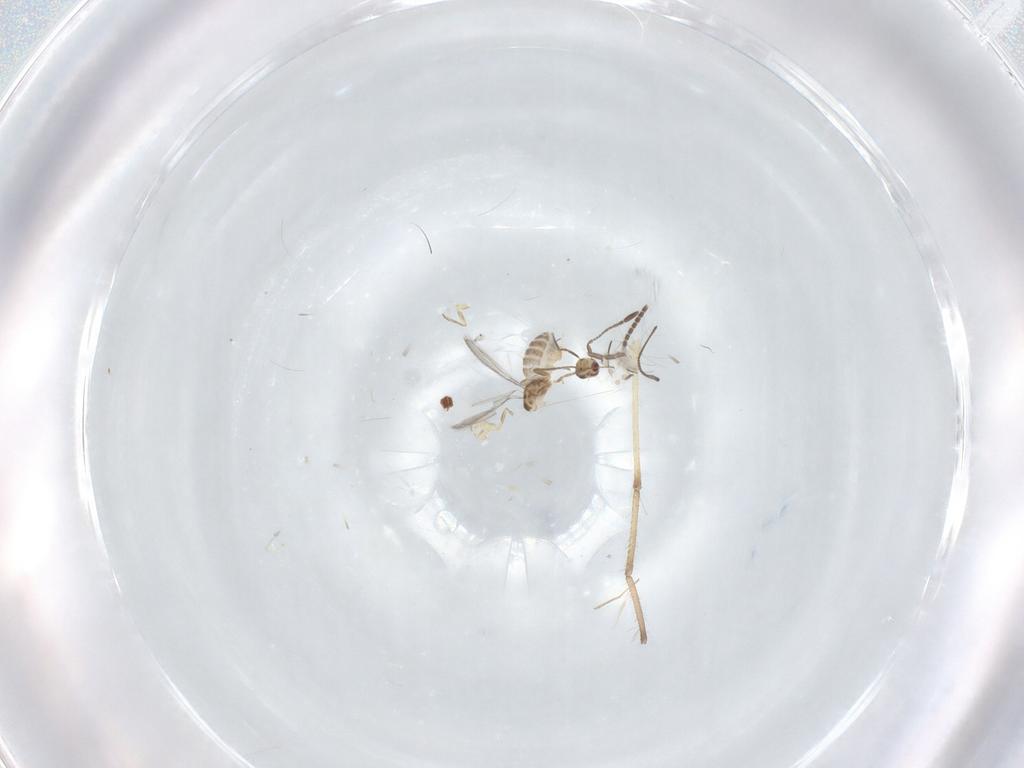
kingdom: Animalia
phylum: Arthropoda
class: Insecta
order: Hymenoptera
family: Mymaridae
